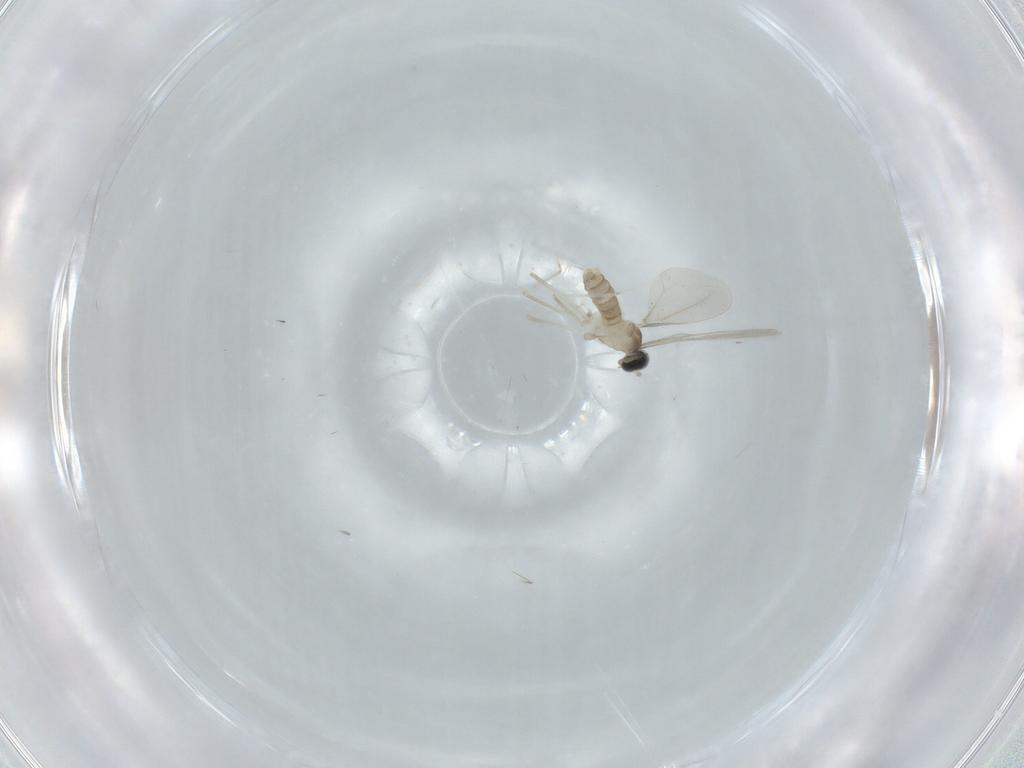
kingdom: Animalia
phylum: Arthropoda
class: Insecta
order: Diptera
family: Cecidomyiidae
